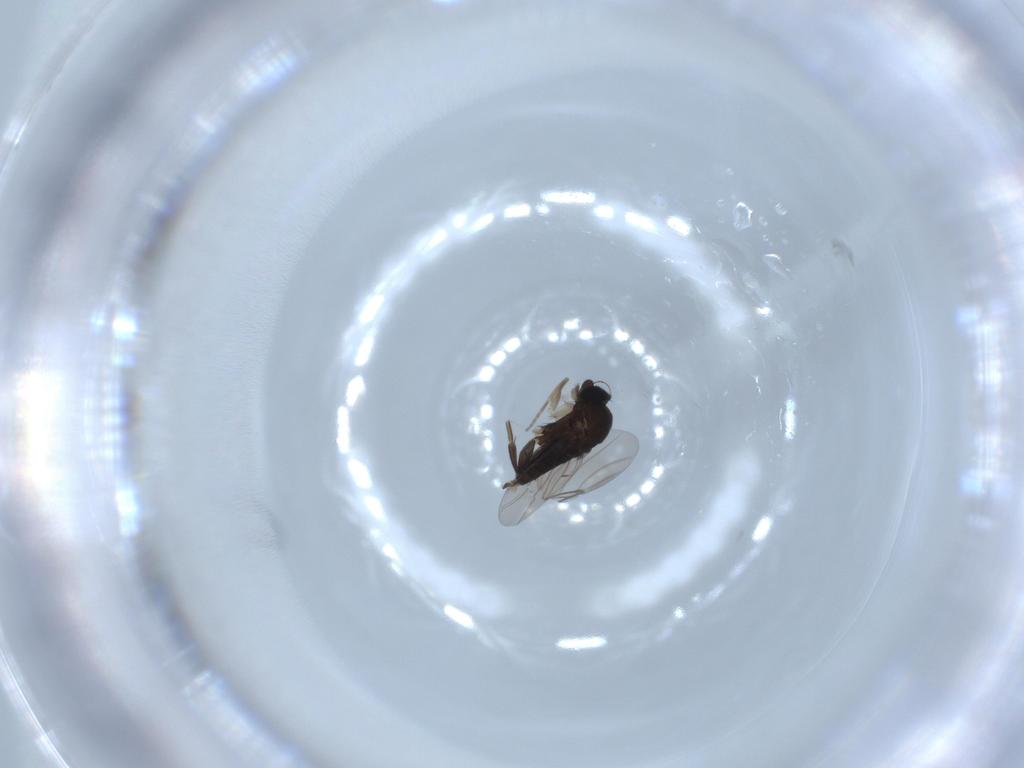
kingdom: Animalia
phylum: Arthropoda
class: Insecta
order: Diptera
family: Phoridae
